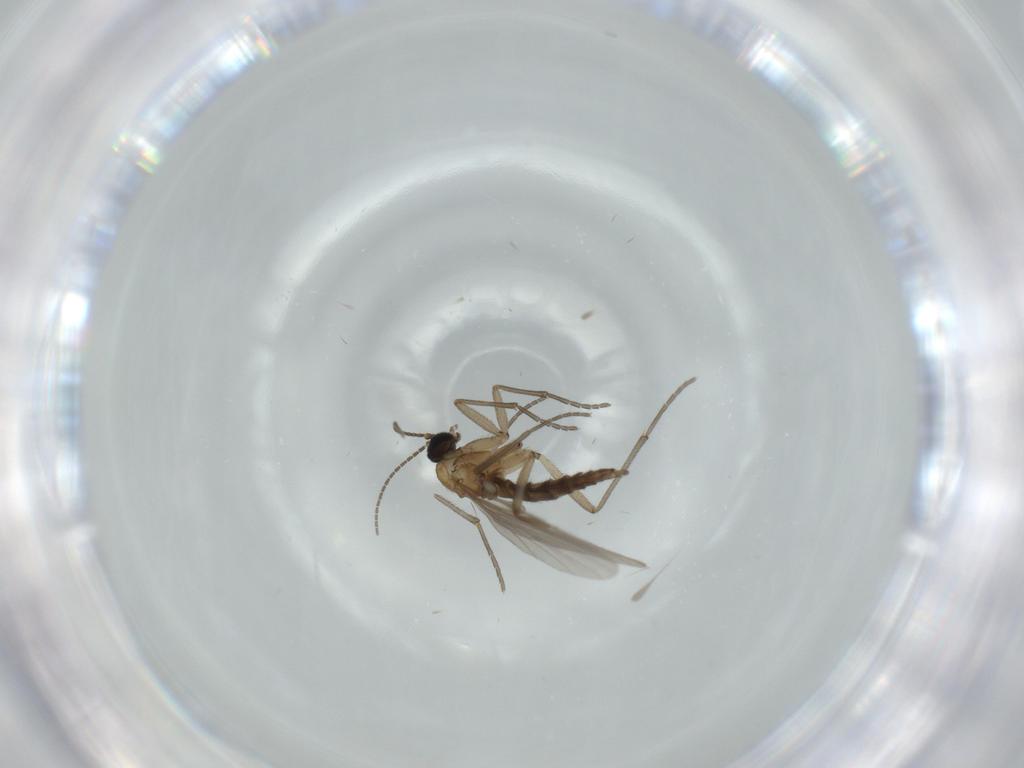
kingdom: Animalia
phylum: Arthropoda
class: Insecta
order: Diptera
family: Sciaridae
